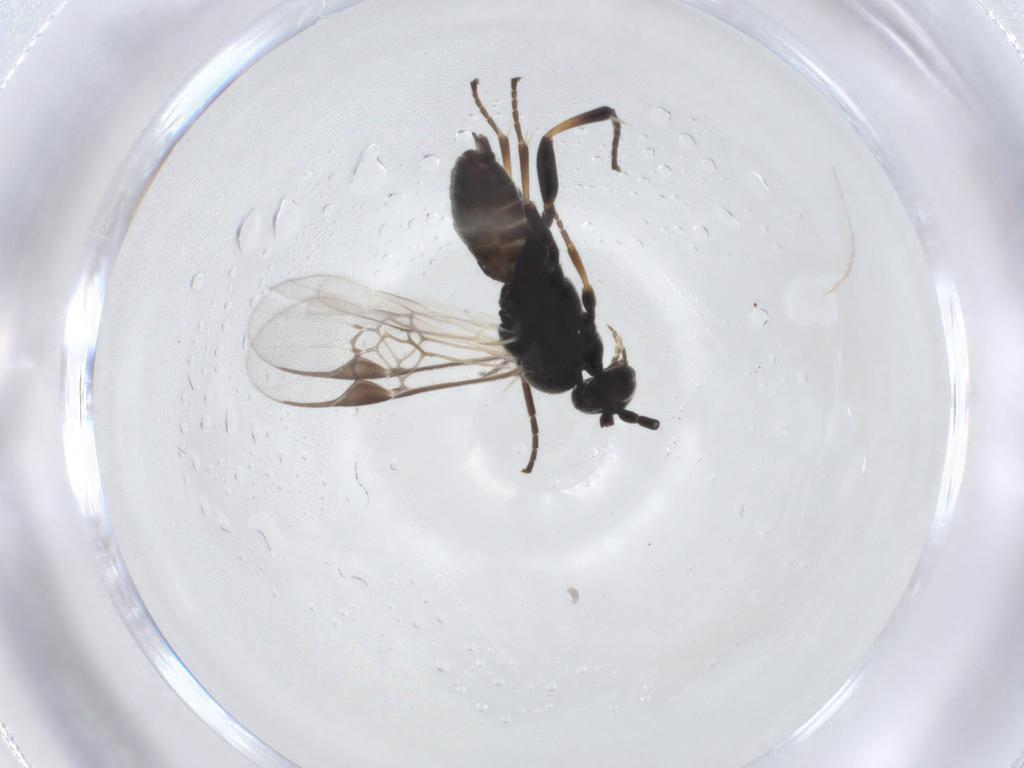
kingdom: Animalia
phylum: Arthropoda
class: Insecta
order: Hymenoptera
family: Braconidae
